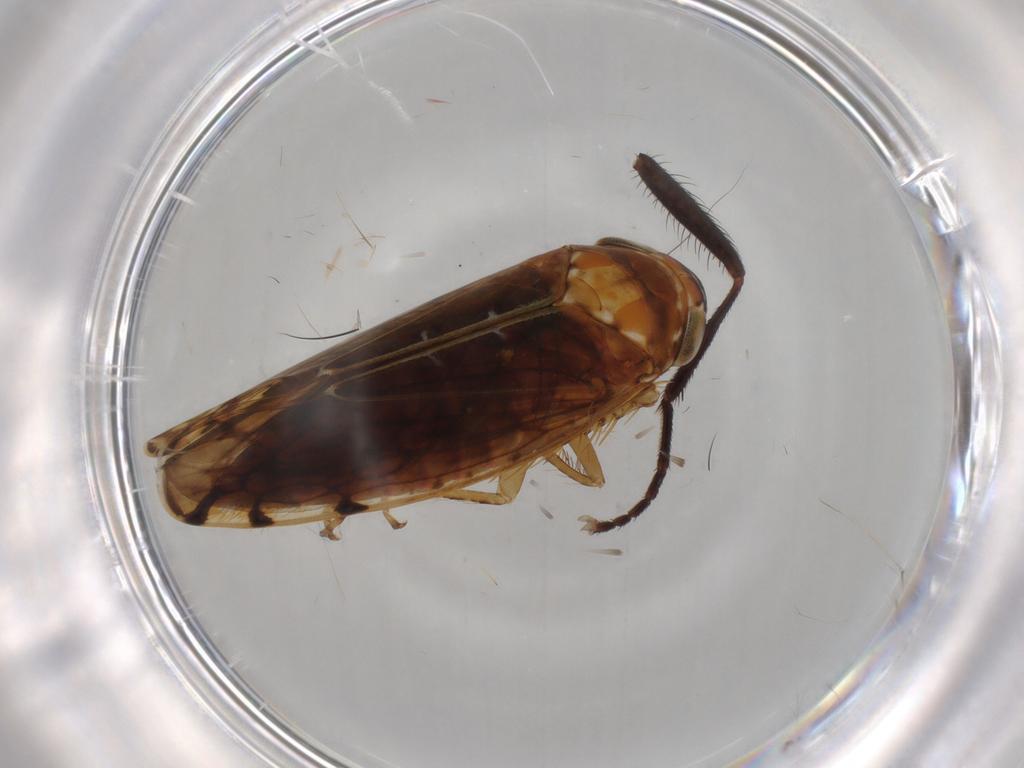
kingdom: Animalia
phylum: Arthropoda
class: Insecta
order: Hemiptera
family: Cicadellidae
